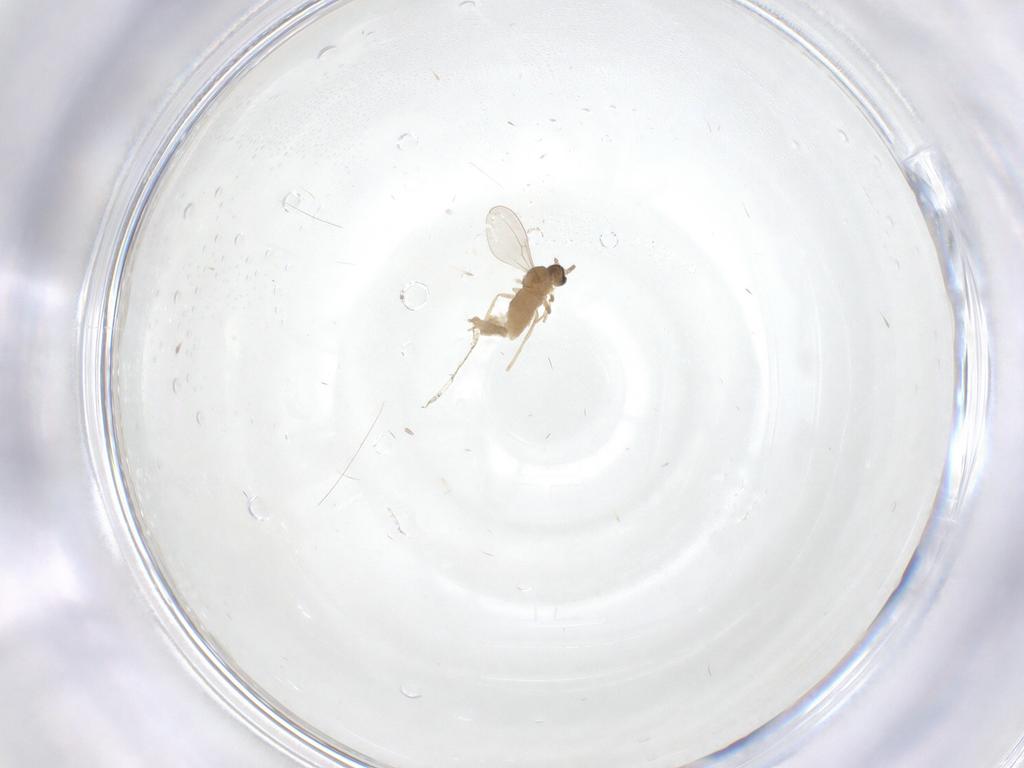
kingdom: Animalia
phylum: Arthropoda
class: Insecta
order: Diptera
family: Cecidomyiidae
